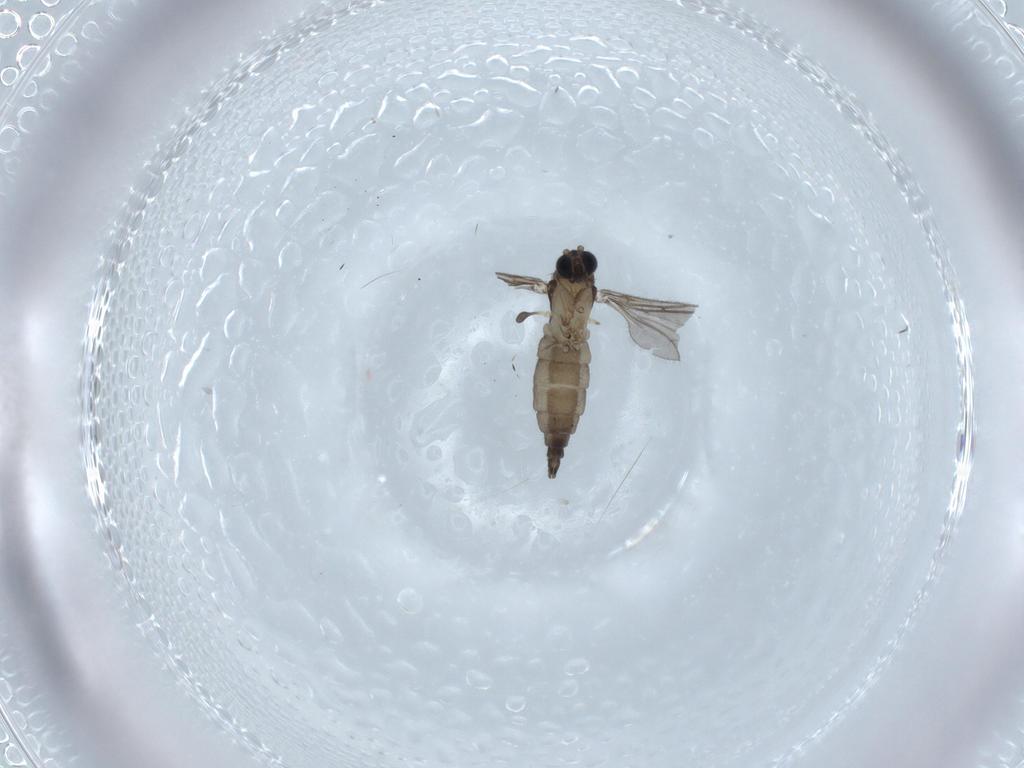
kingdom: Animalia
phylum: Arthropoda
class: Insecta
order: Diptera
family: Sciaridae
